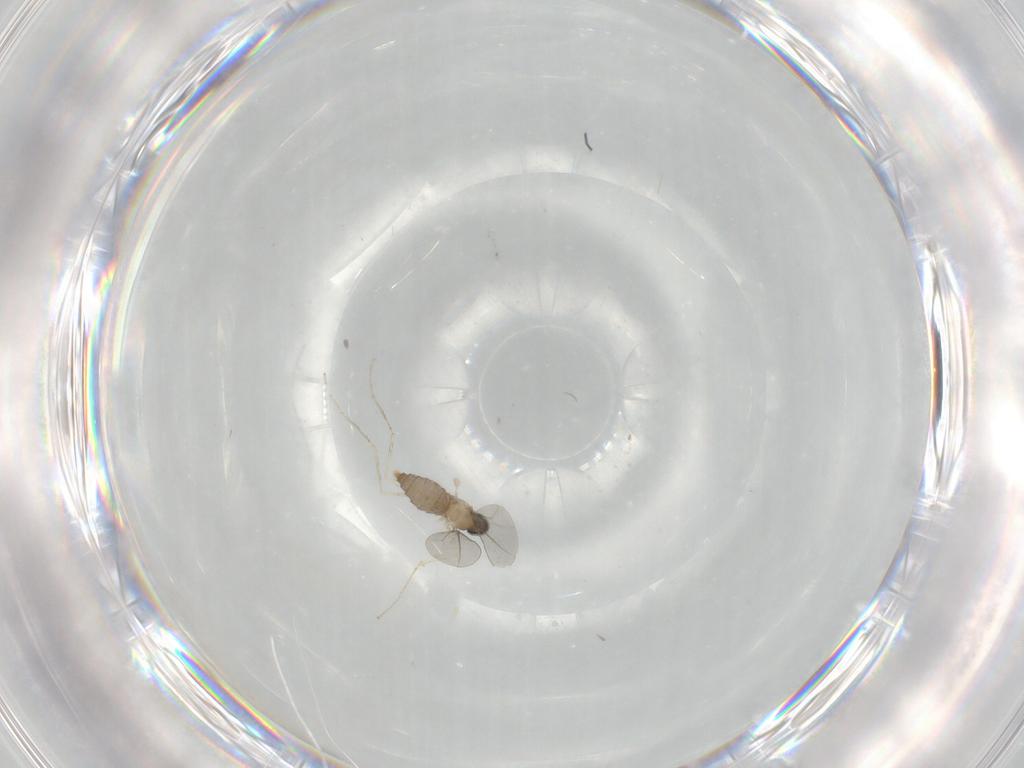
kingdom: Animalia
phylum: Arthropoda
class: Insecta
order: Diptera
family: Cecidomyiidae
